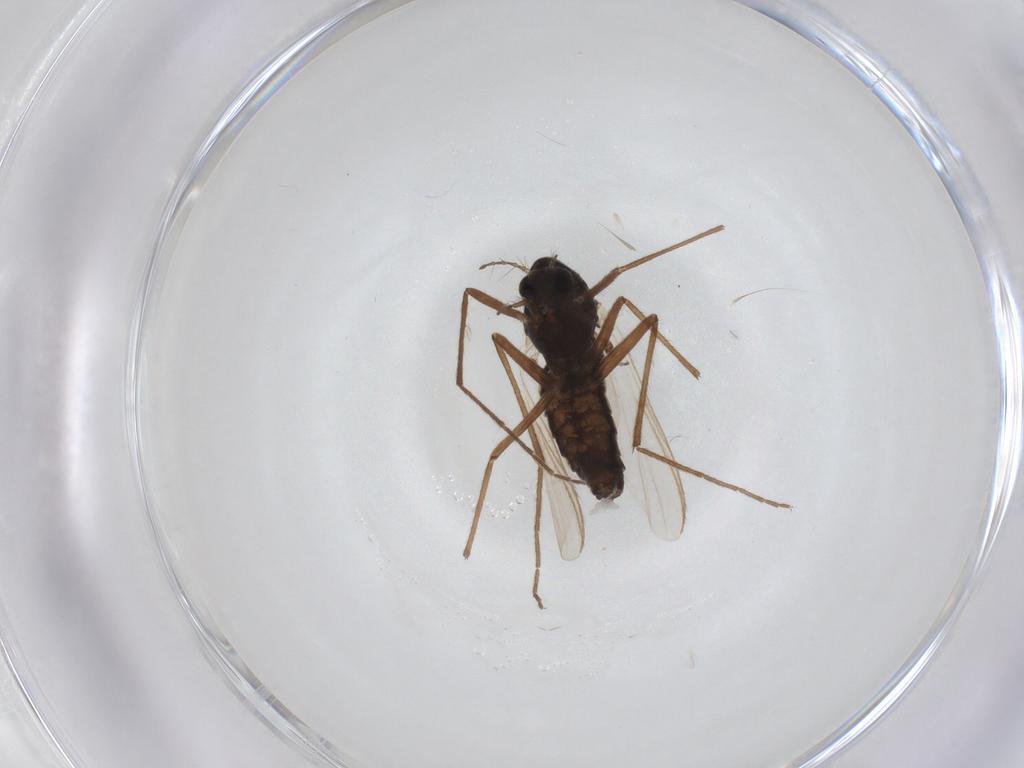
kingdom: Animalia
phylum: Arthropoda
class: Insecta
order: Diptera
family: Chironomidae
